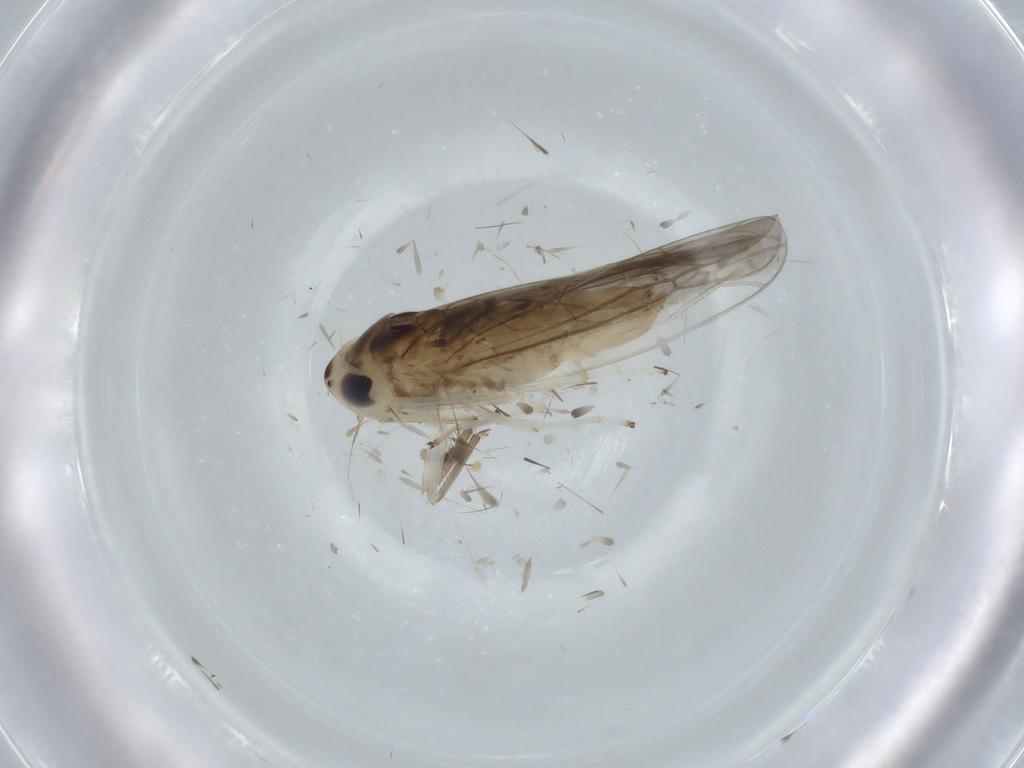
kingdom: Animalia
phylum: Arthropoda
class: Insecta
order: Hemiptera
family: Cicadellidae
